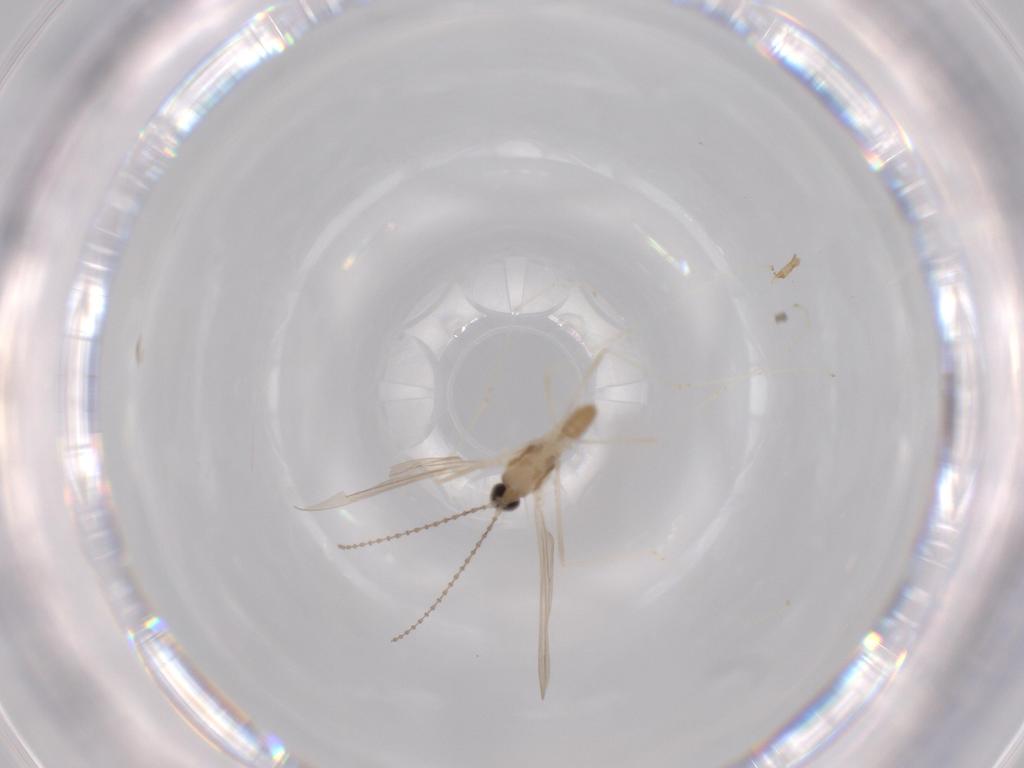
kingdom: Animalia
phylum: Arthropoda
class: Insecta
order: Diptera
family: Cecidomyiidae
